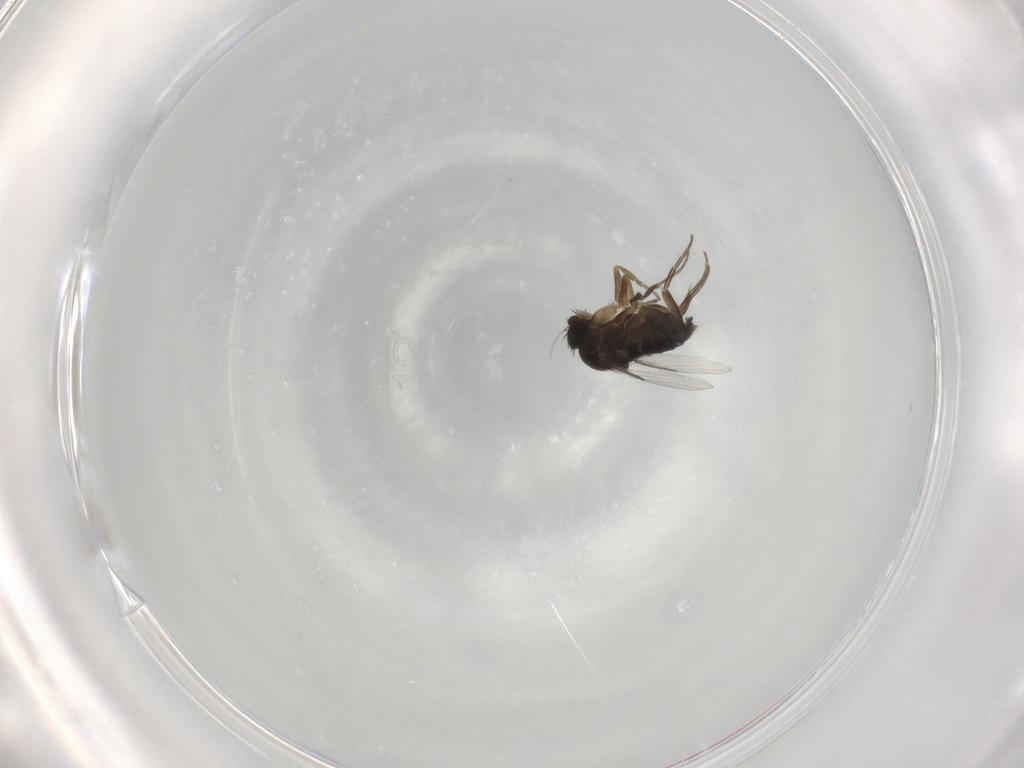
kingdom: Animalia
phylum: Arthropoda
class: Insecta
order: Diptera
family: Phoridae
